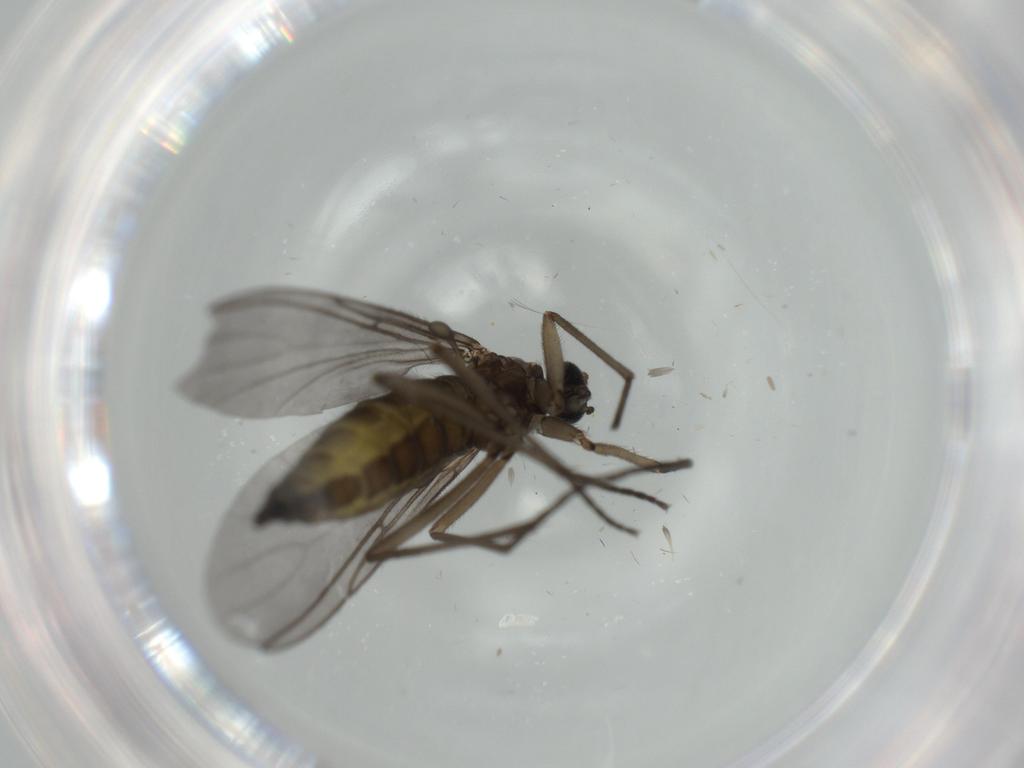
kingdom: Animalia
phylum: Arthropoda
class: Insecta
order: Diptera
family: Sciaridae
